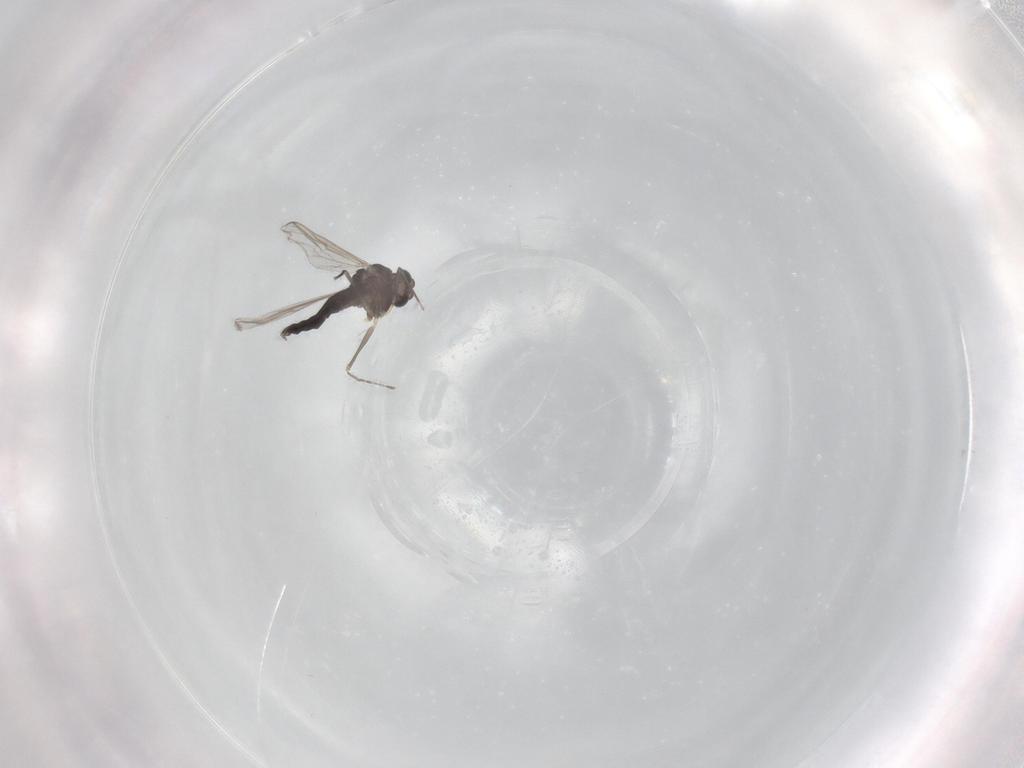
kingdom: Animalia
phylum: Arthropoda
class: Insecta
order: Diptera
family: Chironomidae
